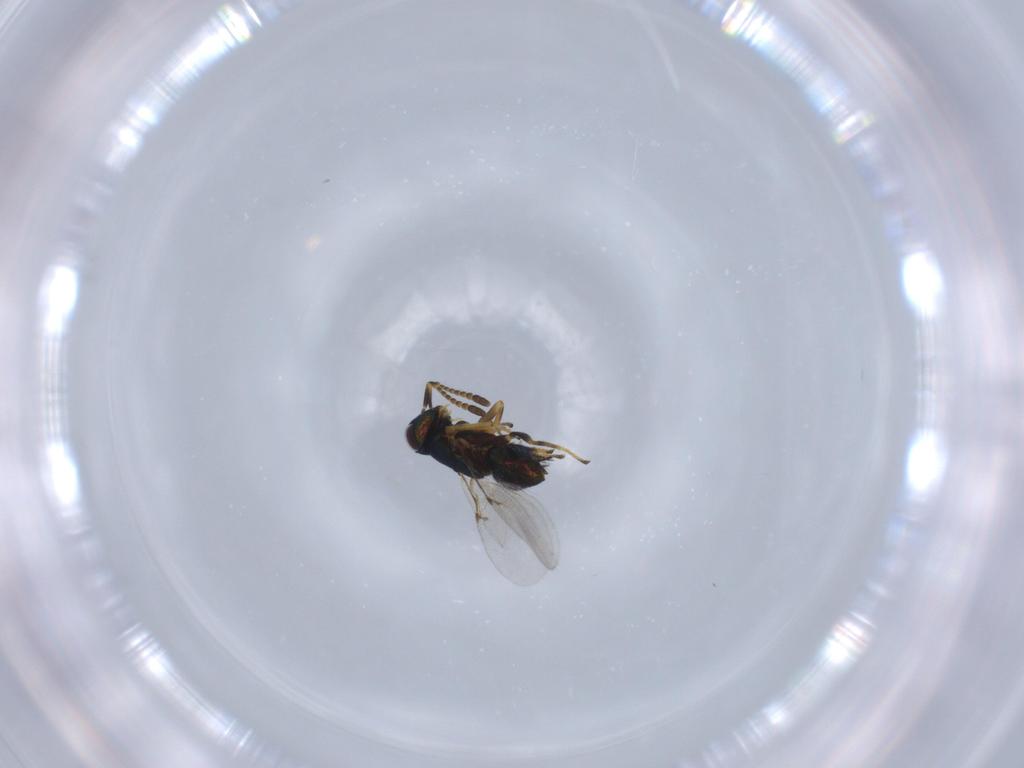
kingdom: Animalia
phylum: Arthropoda
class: Insecta
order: Hymenoptera
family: Mymaridae
